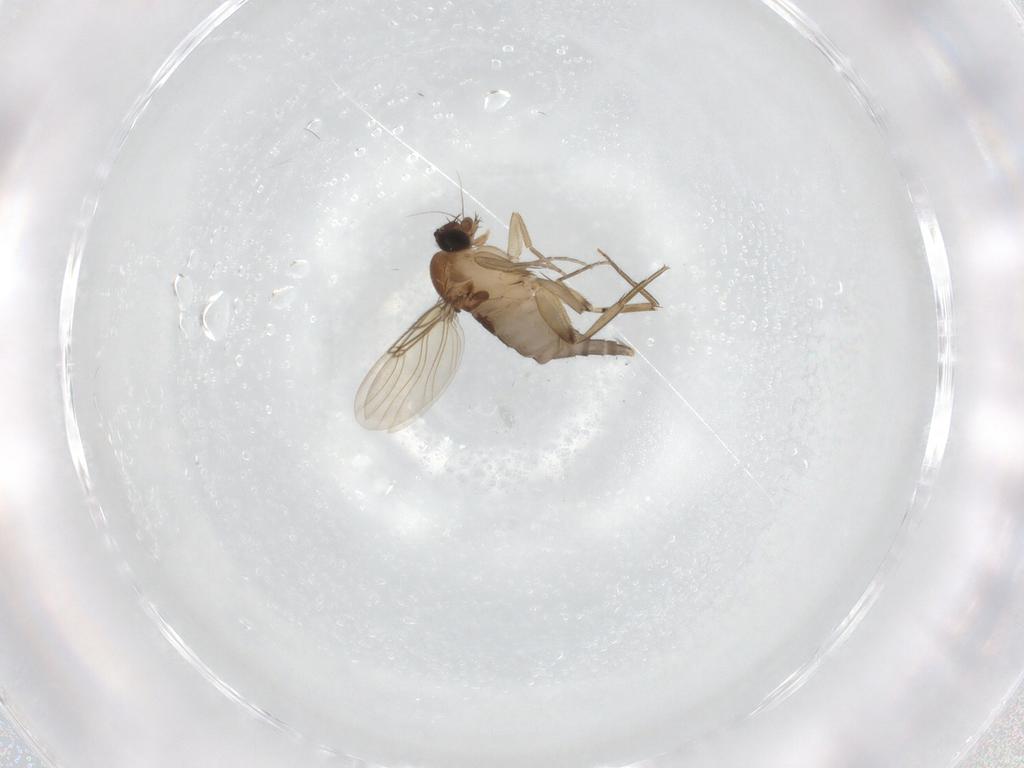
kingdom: Animalia
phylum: Arthropoda
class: Insecta
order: Diptera
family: Phoridae
